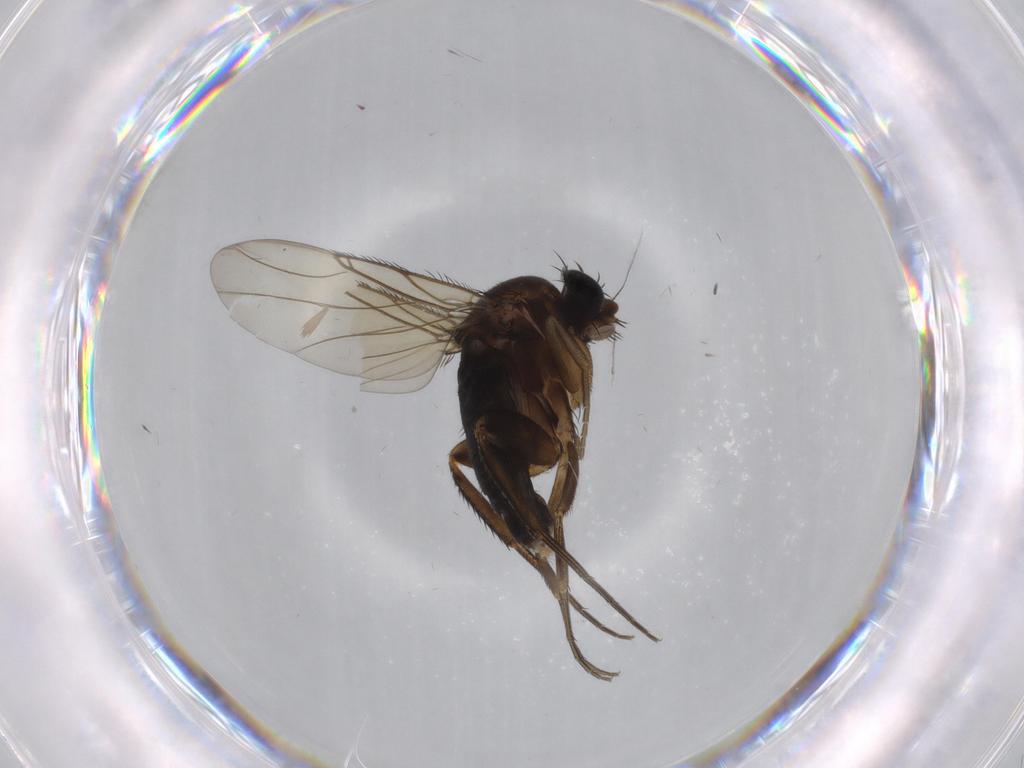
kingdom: Animalia
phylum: Arthropoda
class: Insecta
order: Diptera
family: Phoridae
